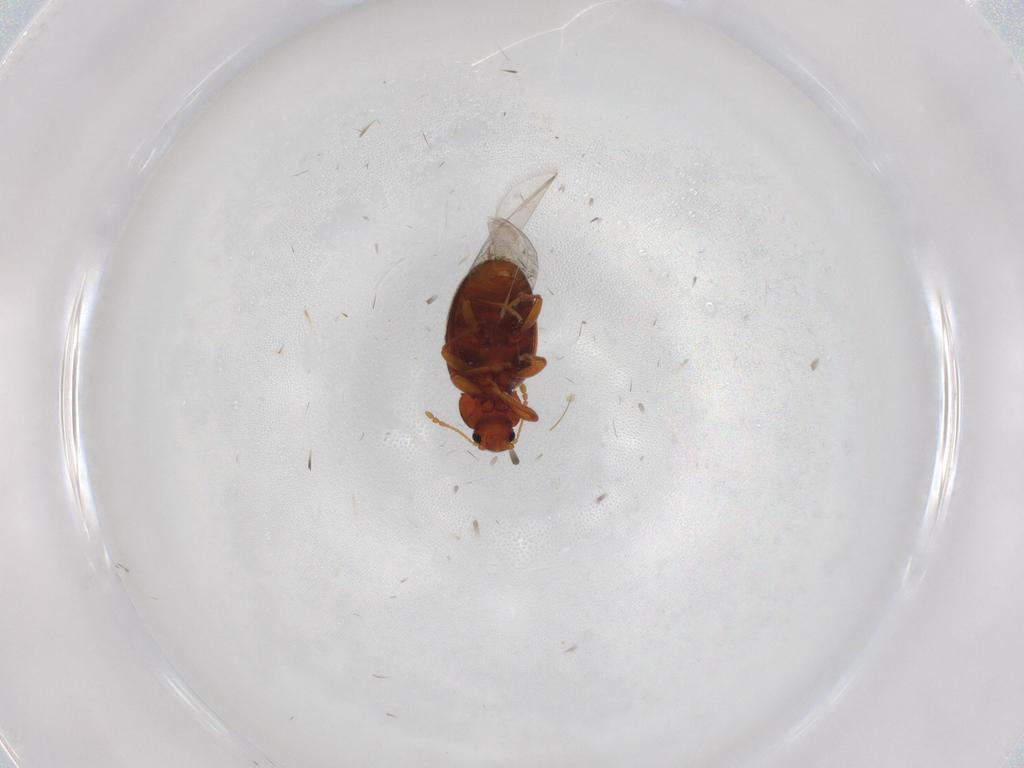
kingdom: Animalia
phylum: Arthropoda
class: Insecta
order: Coleoptera
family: Latridiidae
